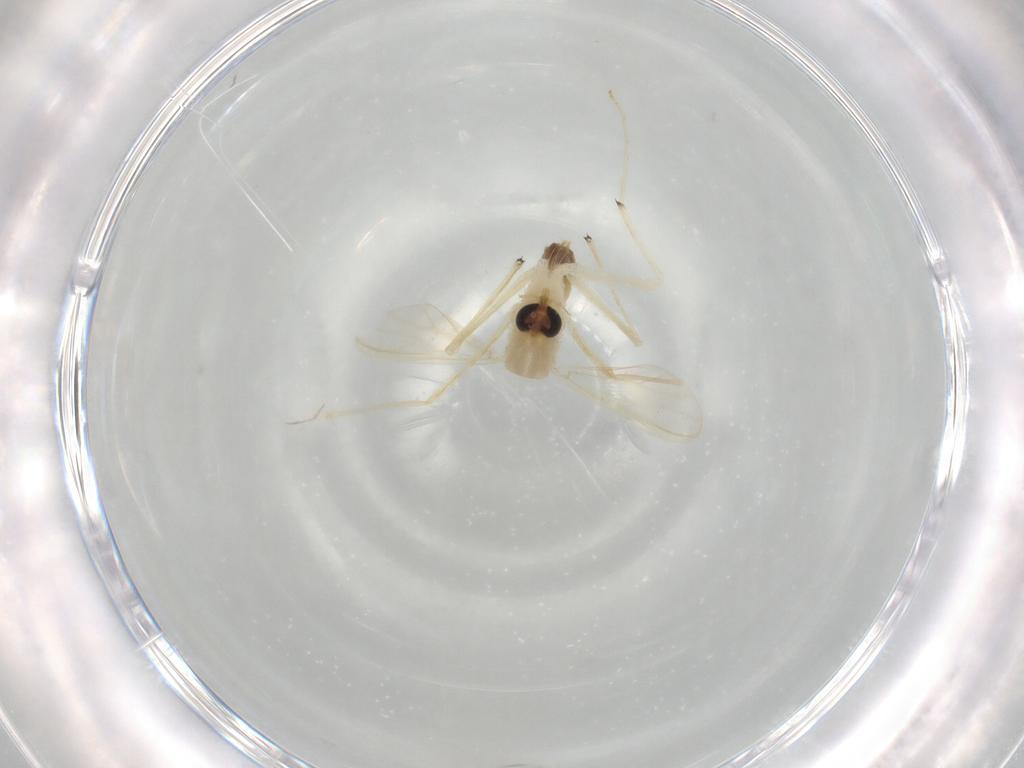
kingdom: Animalia
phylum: Arthropoda
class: Insecta
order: Diptera
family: Chironomidae
